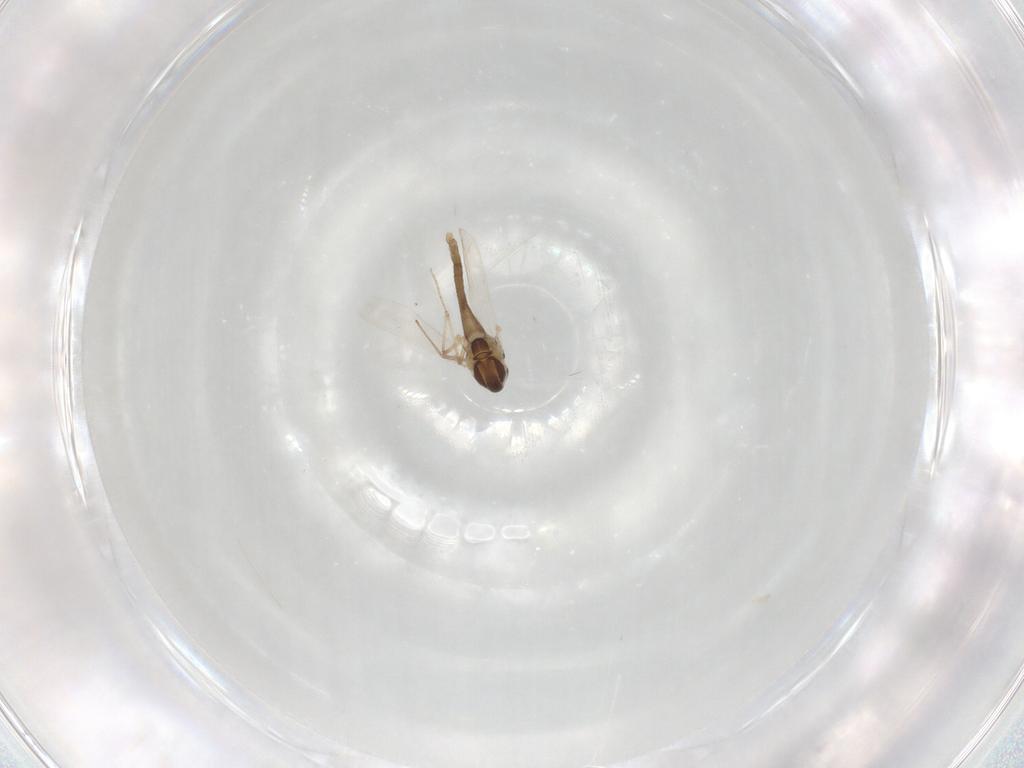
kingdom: Animalia
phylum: Arthropoda
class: Insecta
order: Diptera
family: Chironomidae
